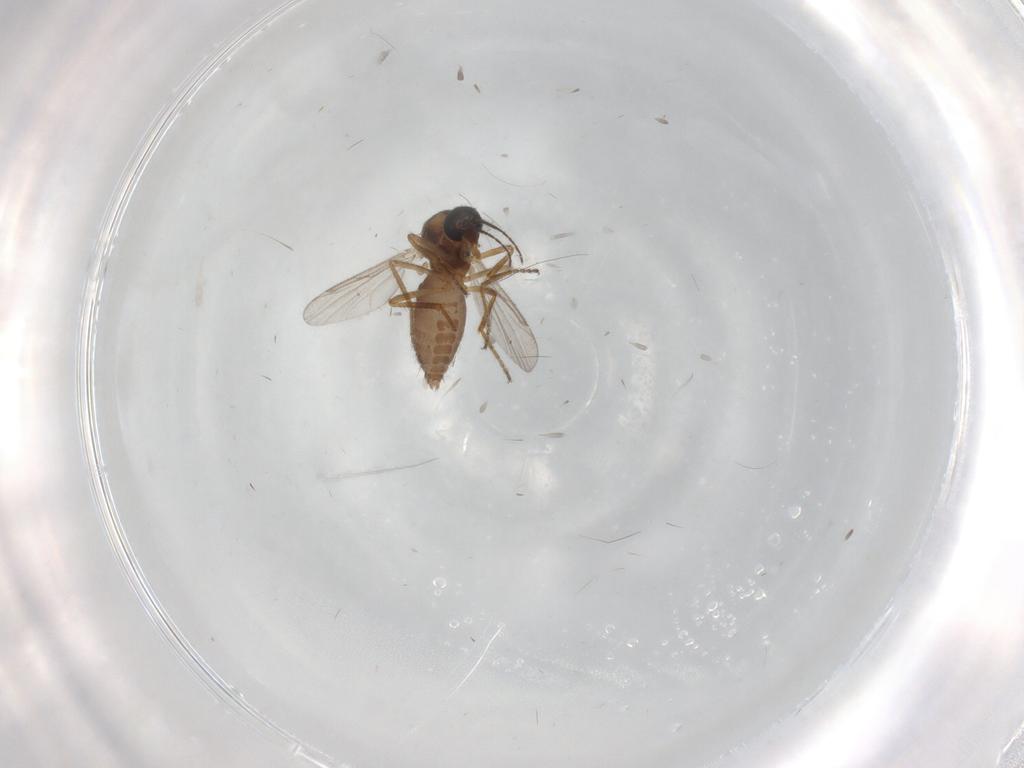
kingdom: Animalia
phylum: Arthropoda
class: Insecta
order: Diptera
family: Ceratopogonidae
